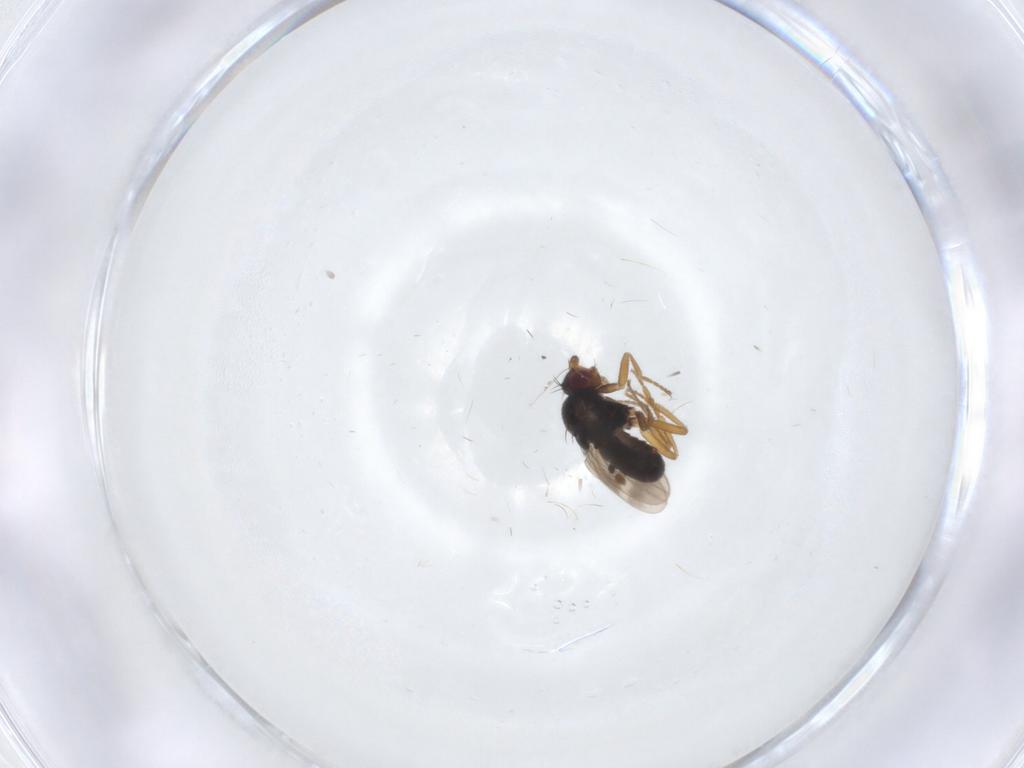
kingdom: Animalia
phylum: Arthropoda
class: Insecta
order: Diptera
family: Sphaeroceridae
